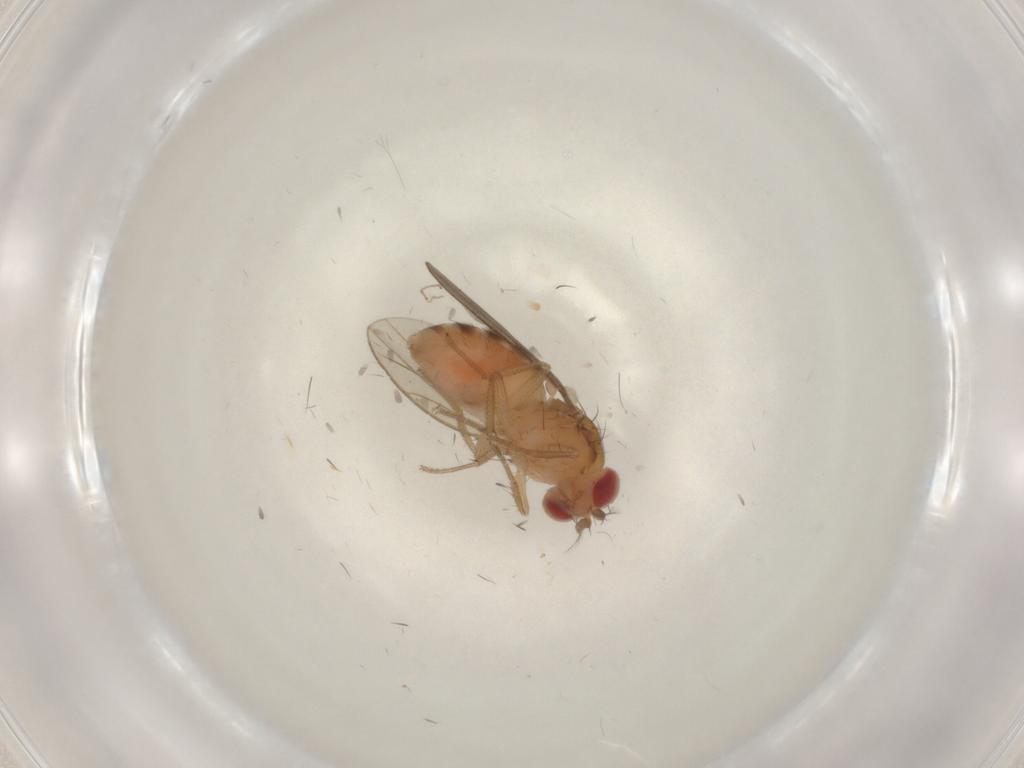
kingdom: Animalia
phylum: Arthropoda
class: Insecta
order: Diptera
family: Drosophilidae
